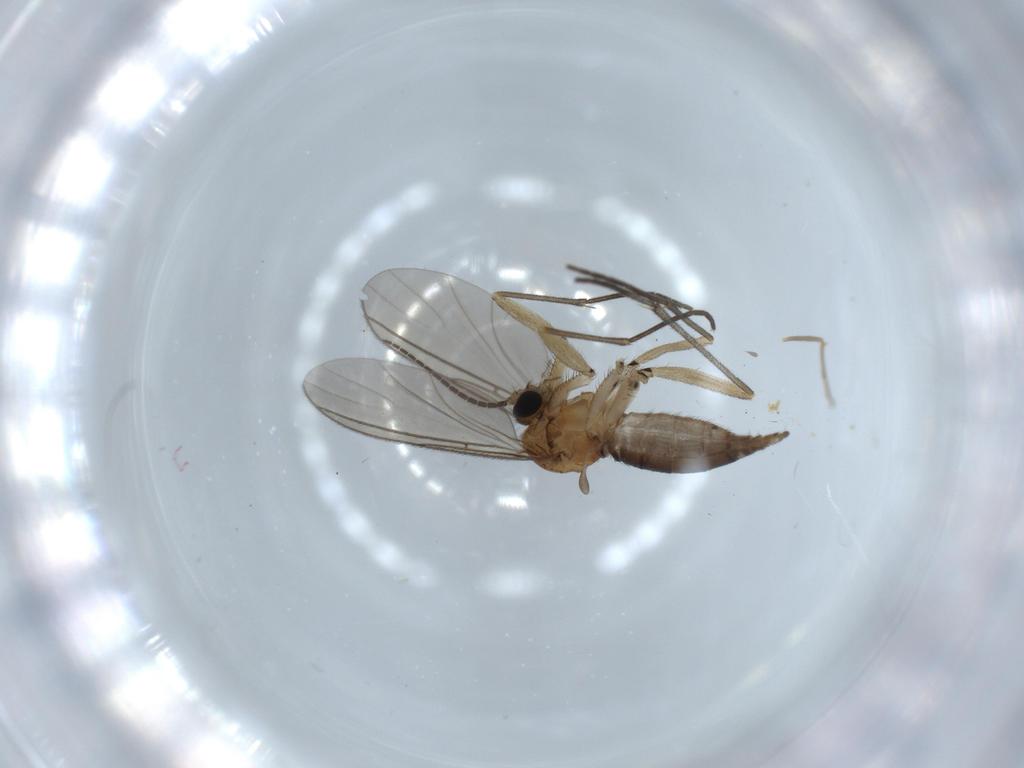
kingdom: Animalia
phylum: Arthropoda
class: Insecta
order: Diptera
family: Sciaridae
